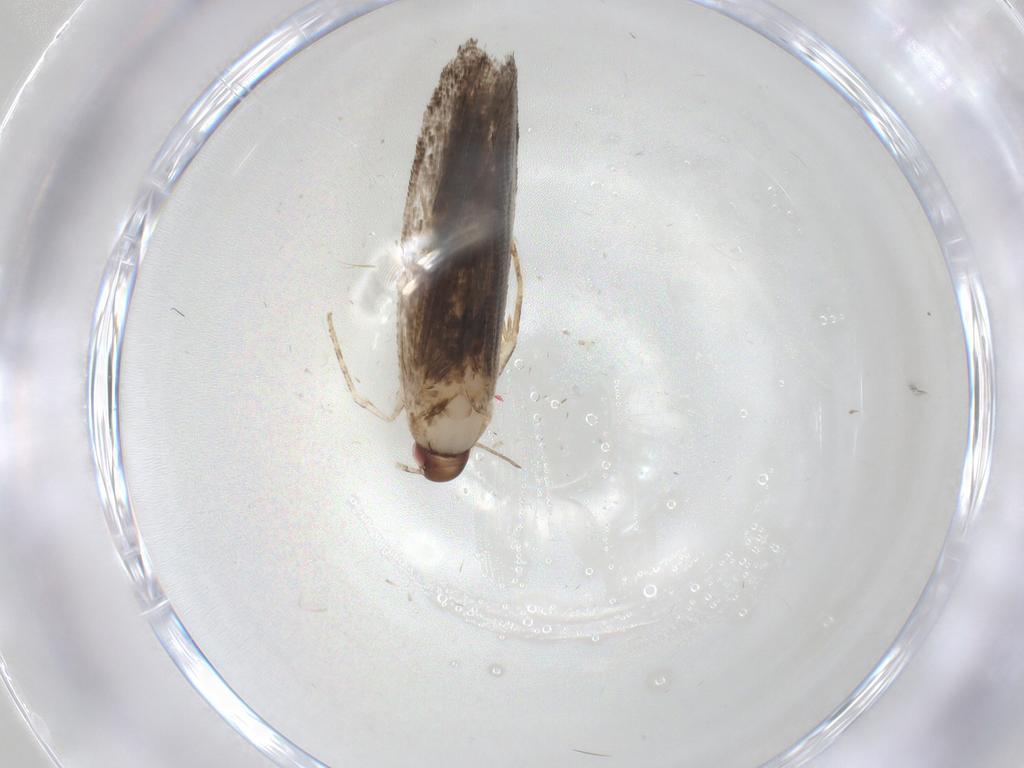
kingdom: Animalia
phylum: Arthropoda
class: Insecta
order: Lepidoptera
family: Gelechiidae
